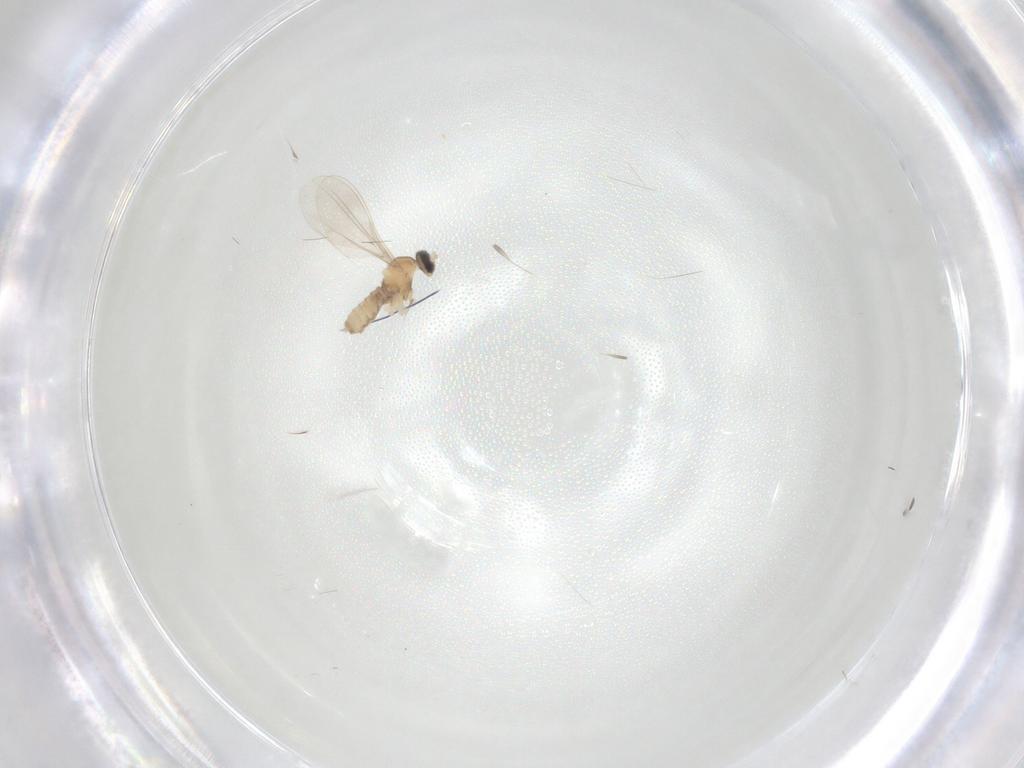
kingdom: Animalia
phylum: Arthropoda
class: Insecta
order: Diptera
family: Cecidomyiidae
